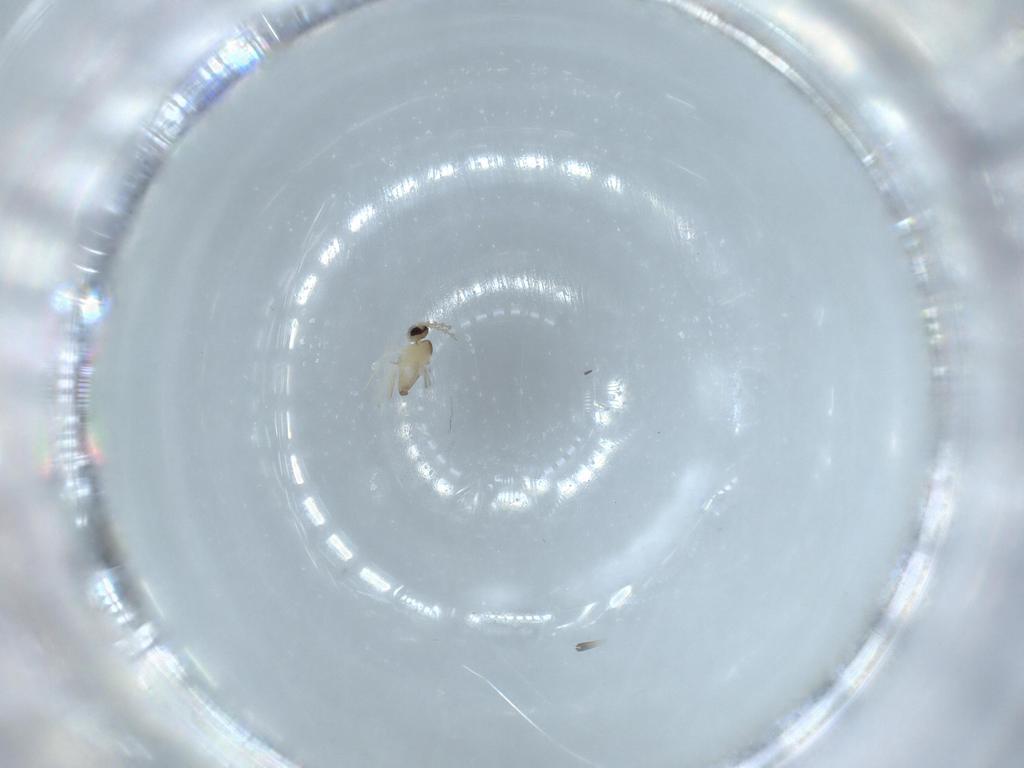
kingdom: Animalia
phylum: Arthropoda
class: Insecta
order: Diptera
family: Cecidomyiidae
